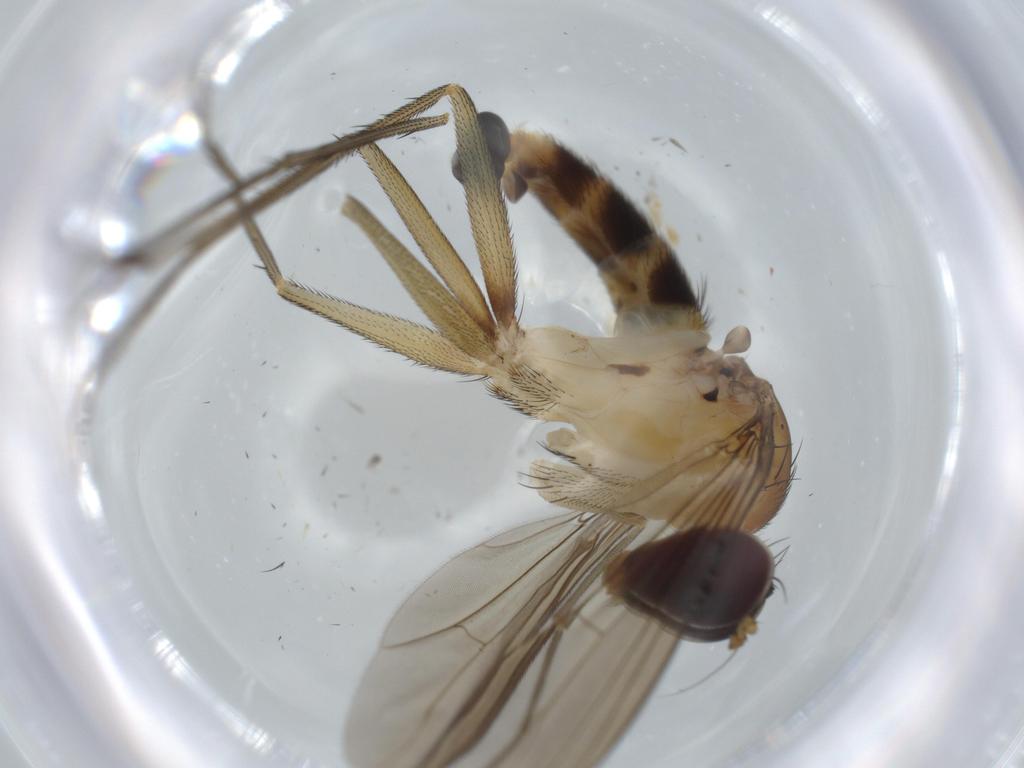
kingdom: Animalia
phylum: Arthropoda
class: Insecta
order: Diptera
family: Dolichopodidae
